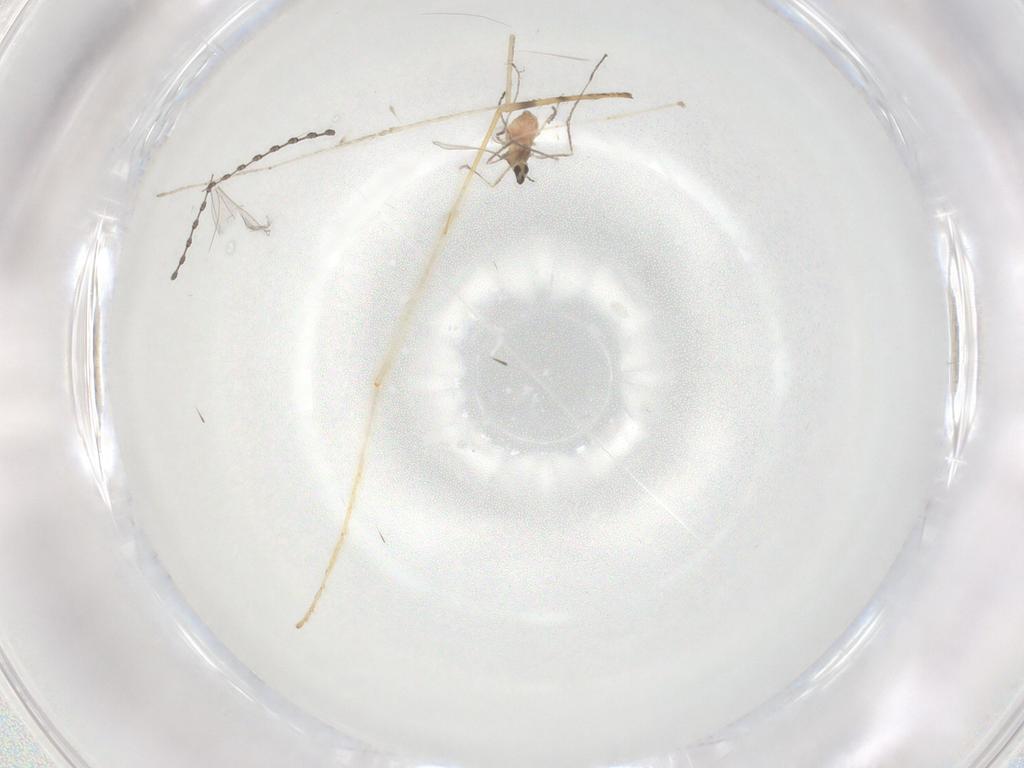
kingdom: Animalia
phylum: Arthropoda
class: Insecta
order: Diptera
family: Cecidomyiidae
